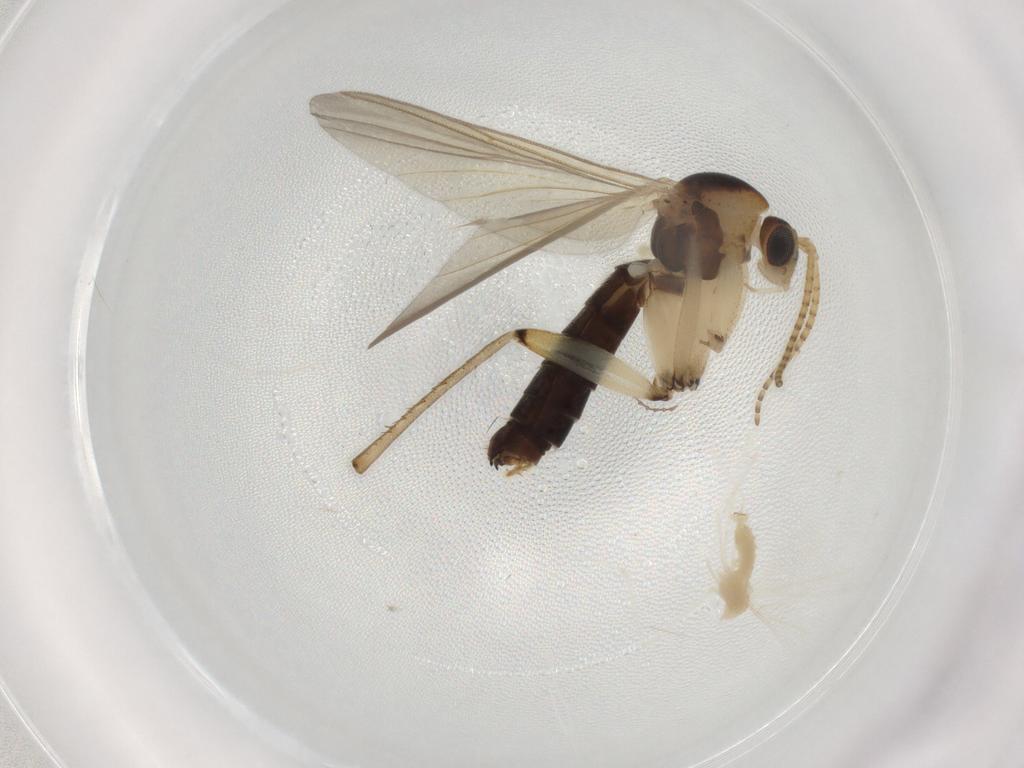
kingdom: Animalia
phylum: Arthropoda
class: Insecta
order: Diptera
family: Mycetophilidae
